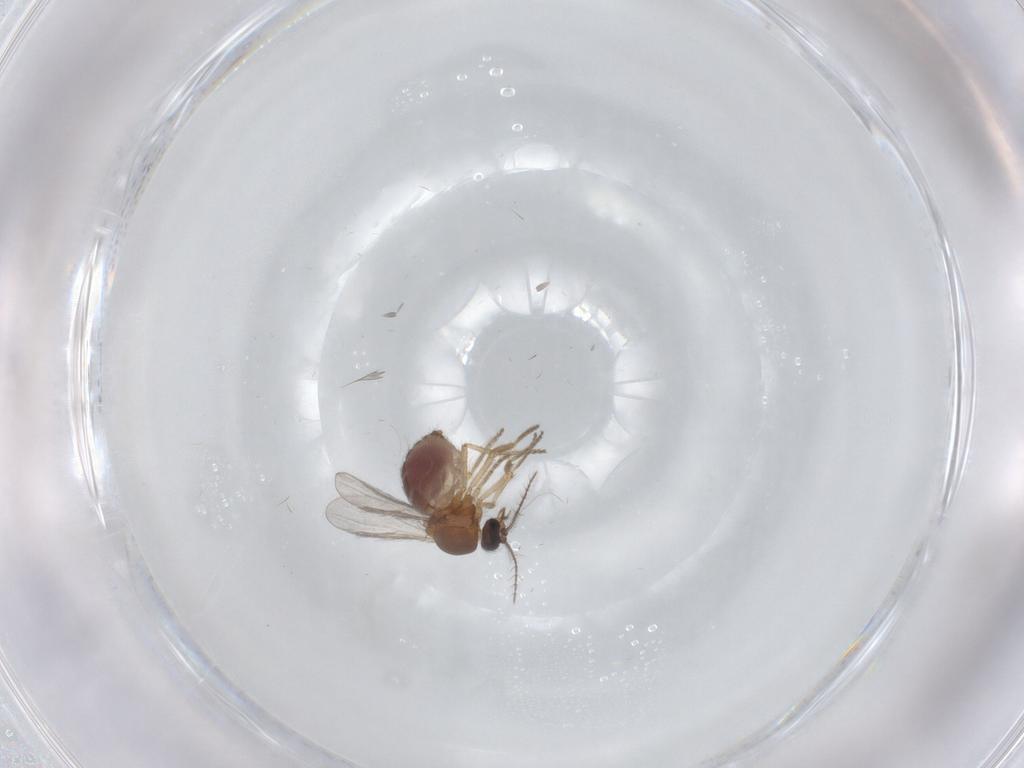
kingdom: Animalia
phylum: Arthropoda
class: Insecta
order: Diptera
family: Ceratopogonidae
